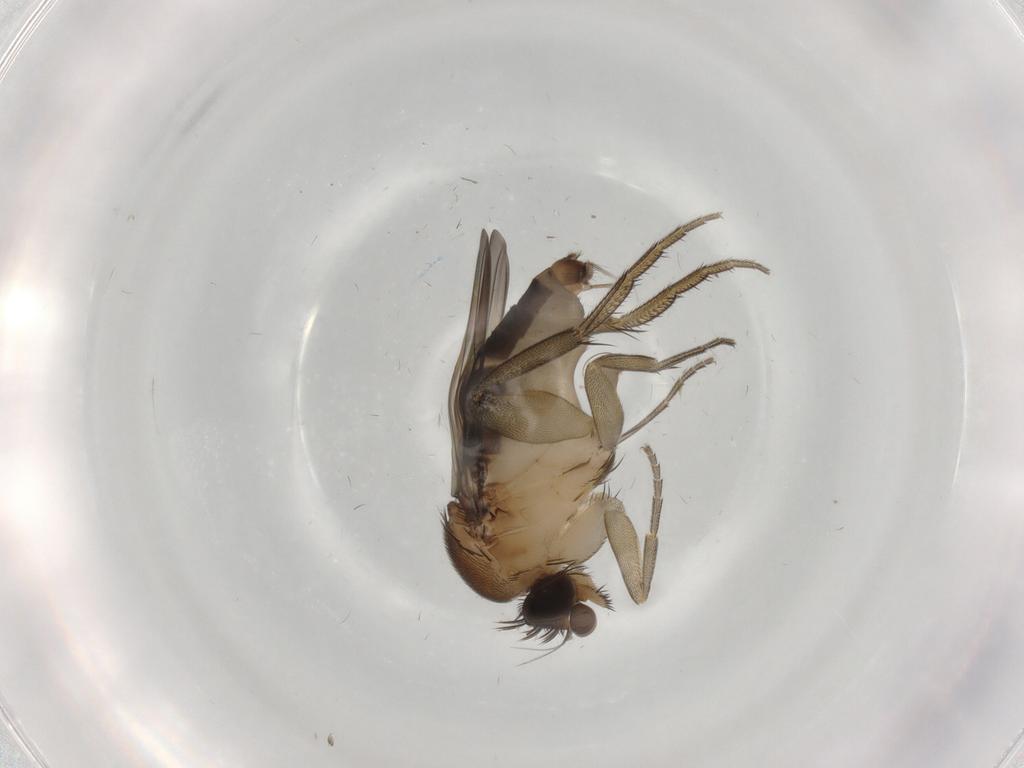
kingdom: Animalia
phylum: Arthropoda
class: Insecta
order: Diptera
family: Phoridae
